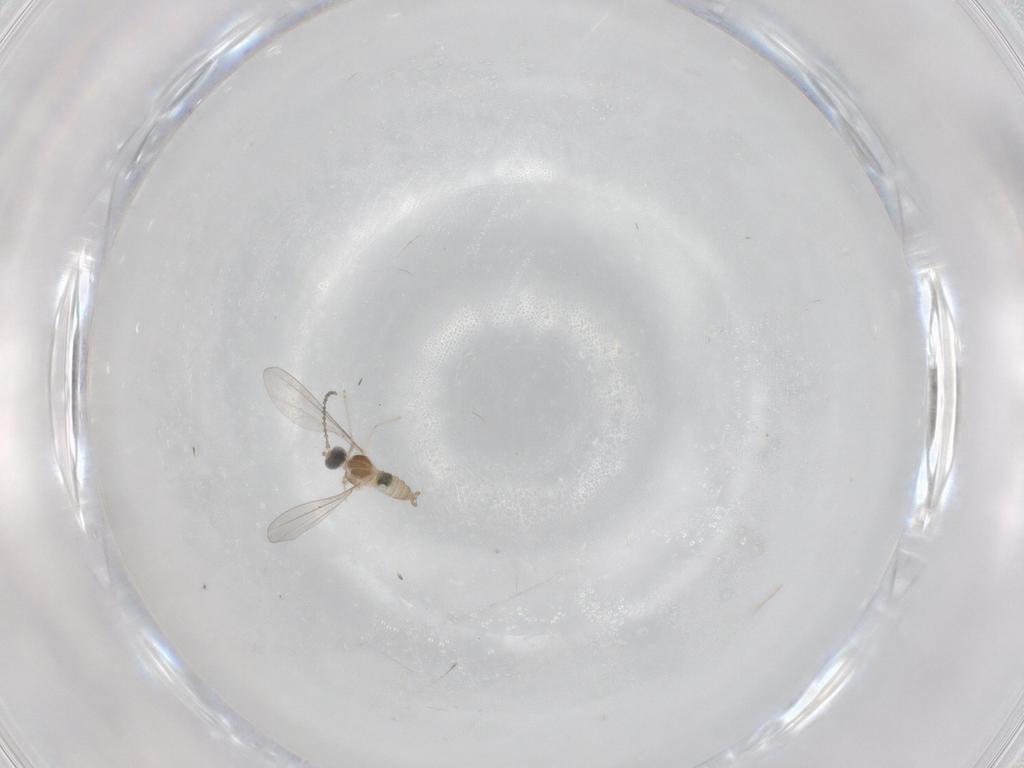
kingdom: Animalia
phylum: Arthropoda
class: Insecta
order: Diptera
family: Cecidomyiidae
